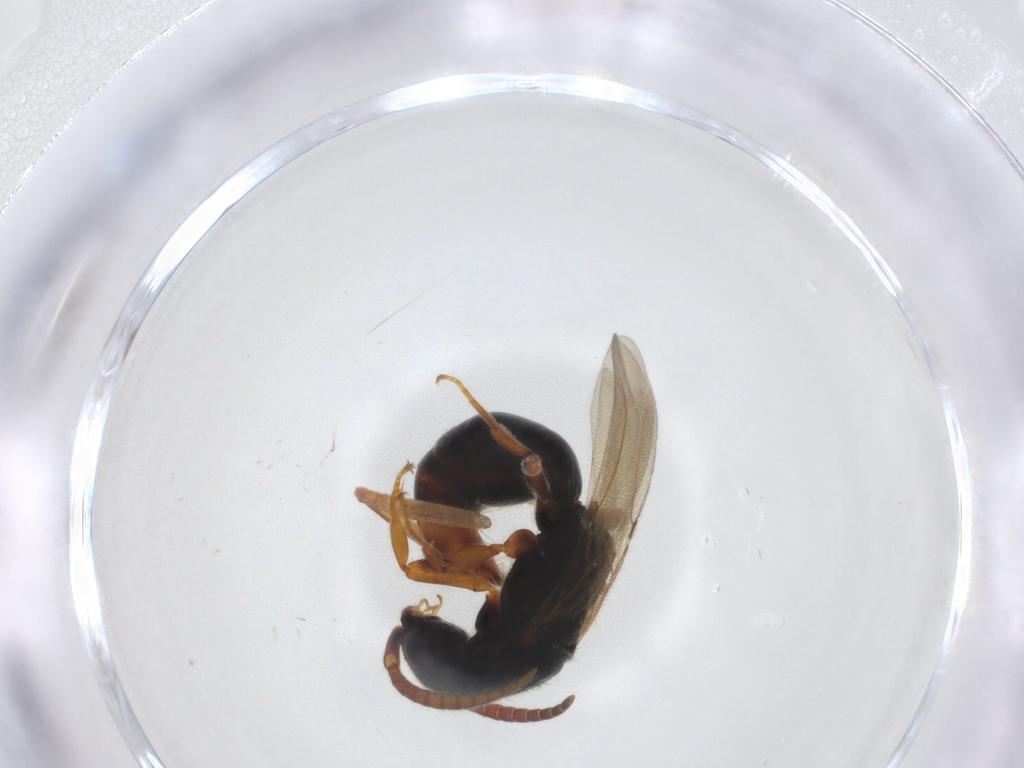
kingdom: Animalia
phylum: Arthropoda
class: Insecta
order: Hymenoptera
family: Bethylidae
